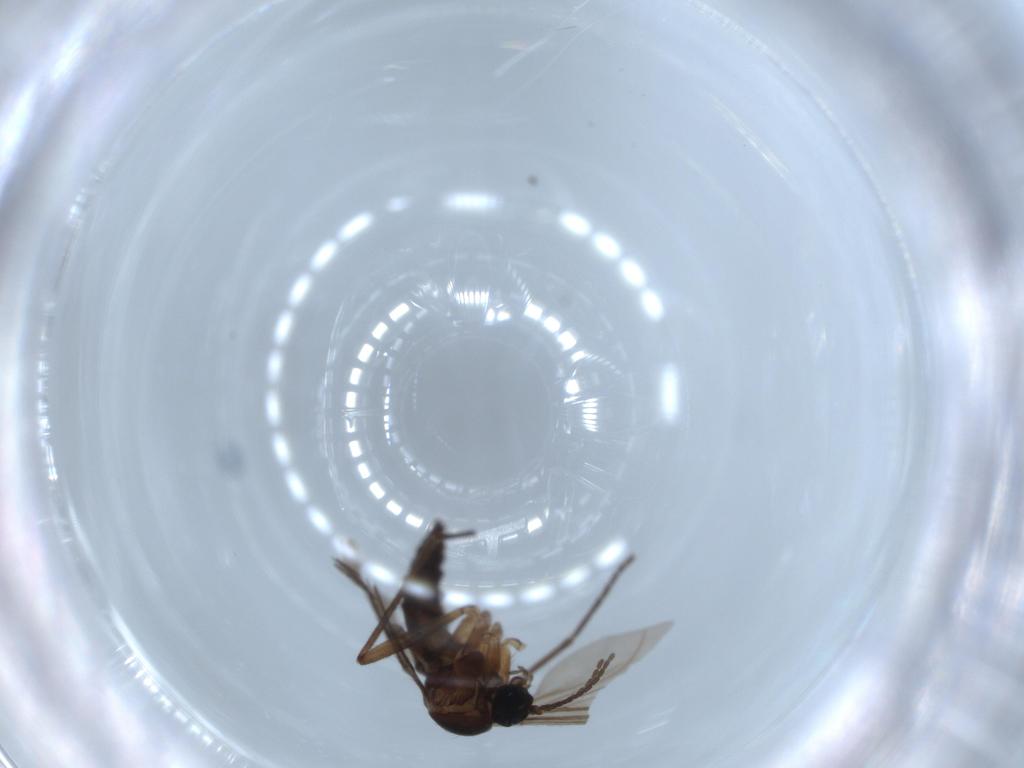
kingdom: Animalia
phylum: Arthropoda
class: Insecta
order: Diptera
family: Sciaridae
